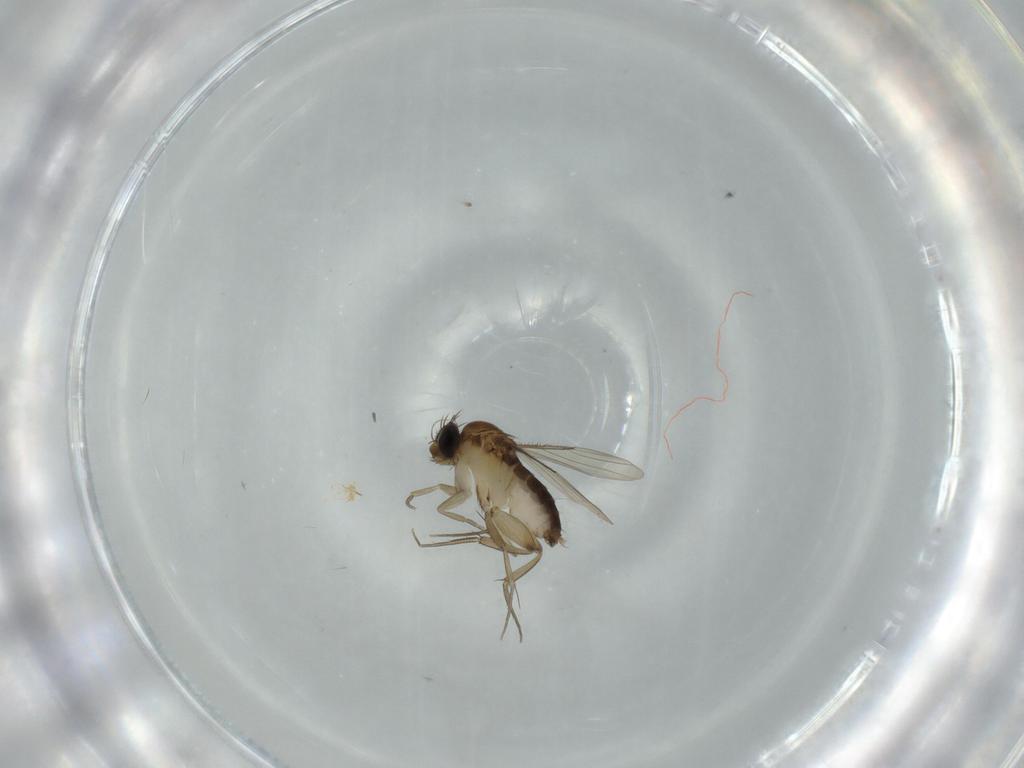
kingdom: Animalia
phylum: Arthropoda
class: Insecta
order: Diptera
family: Phoridae
